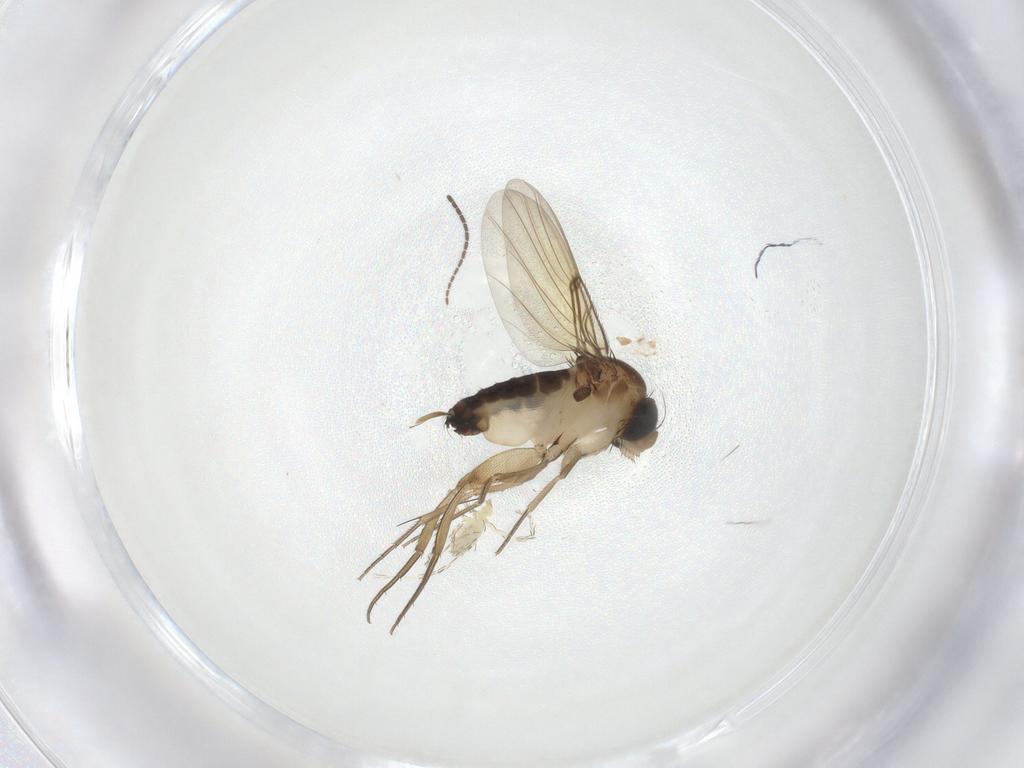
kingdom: Animalia
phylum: Arthropoda
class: Insecta
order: Diptera
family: Phoridae
